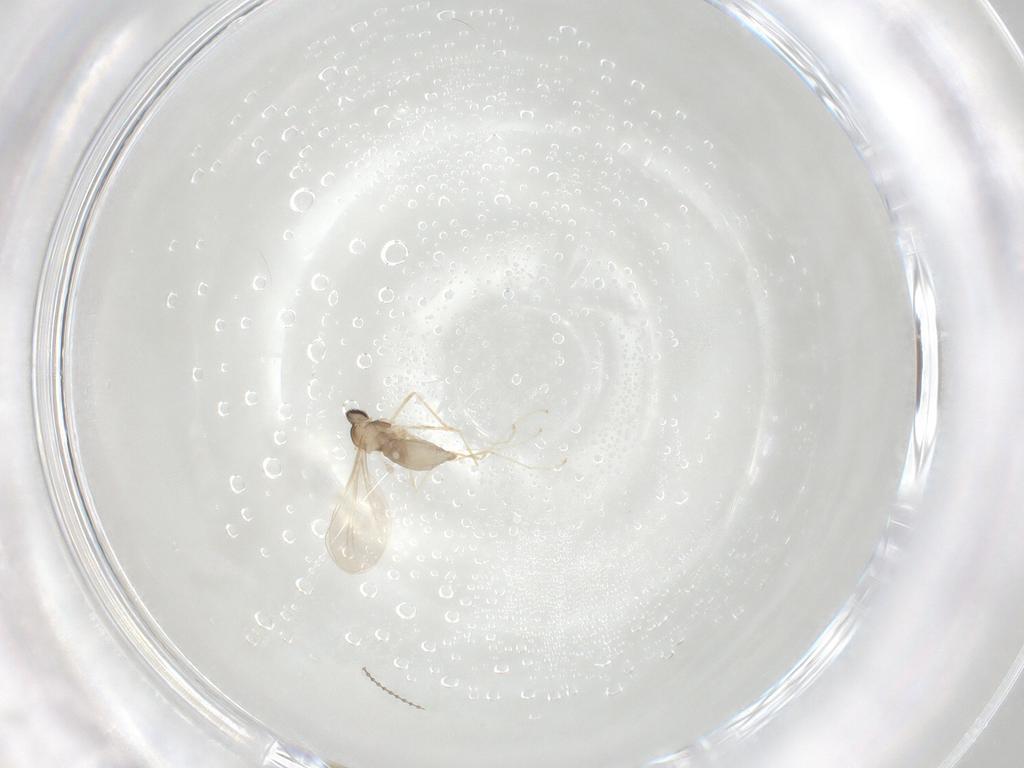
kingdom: Animalia
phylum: Arthropoda
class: Insecta
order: Diptera
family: Cecidomyiidae
